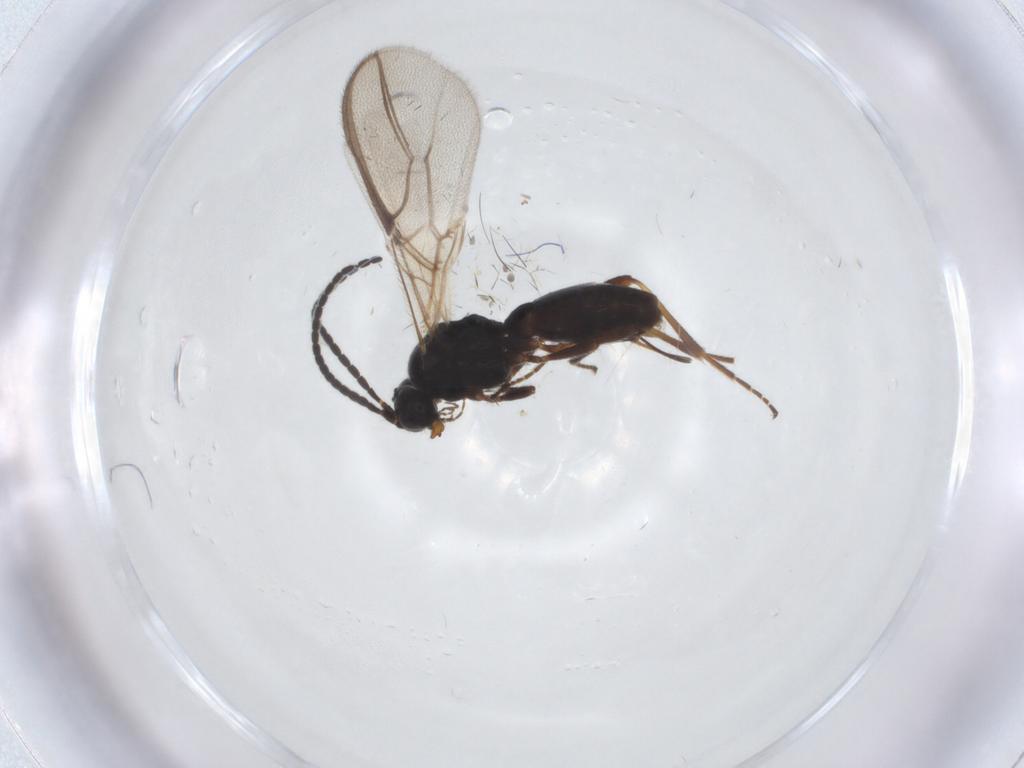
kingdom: Animalia
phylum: Arthropoda
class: Insecta
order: Hymenoptera
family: Braconidae
